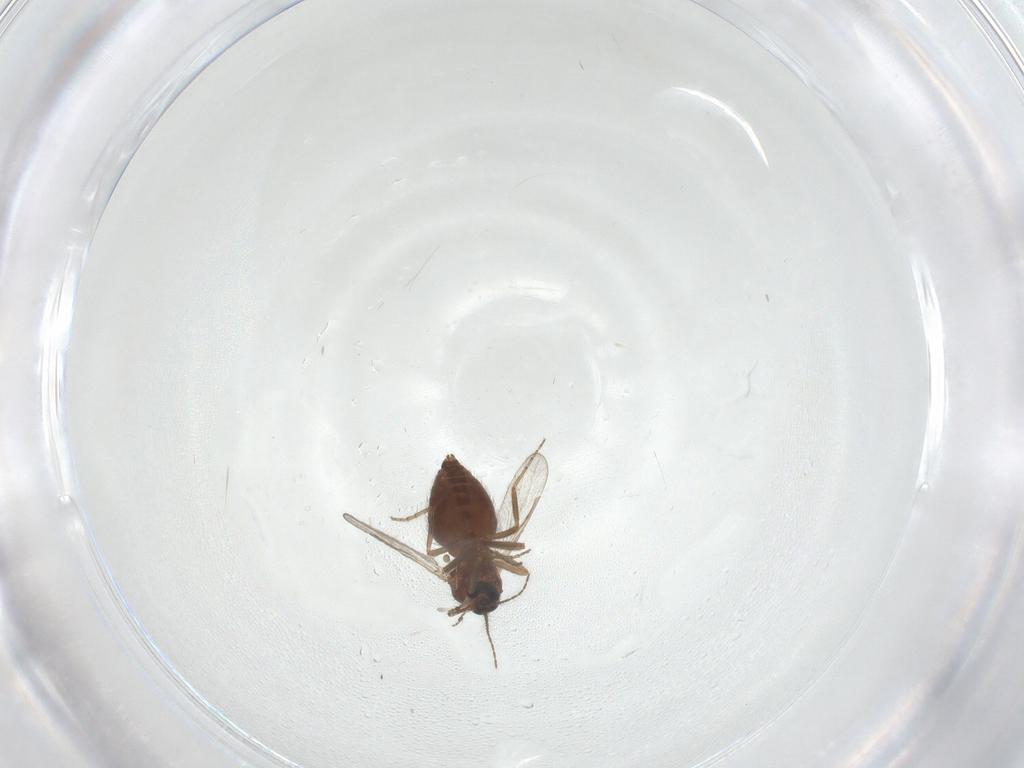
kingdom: Animalia
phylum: Arthropoda
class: Insecta
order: Diptera
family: Ceratopogonidae
